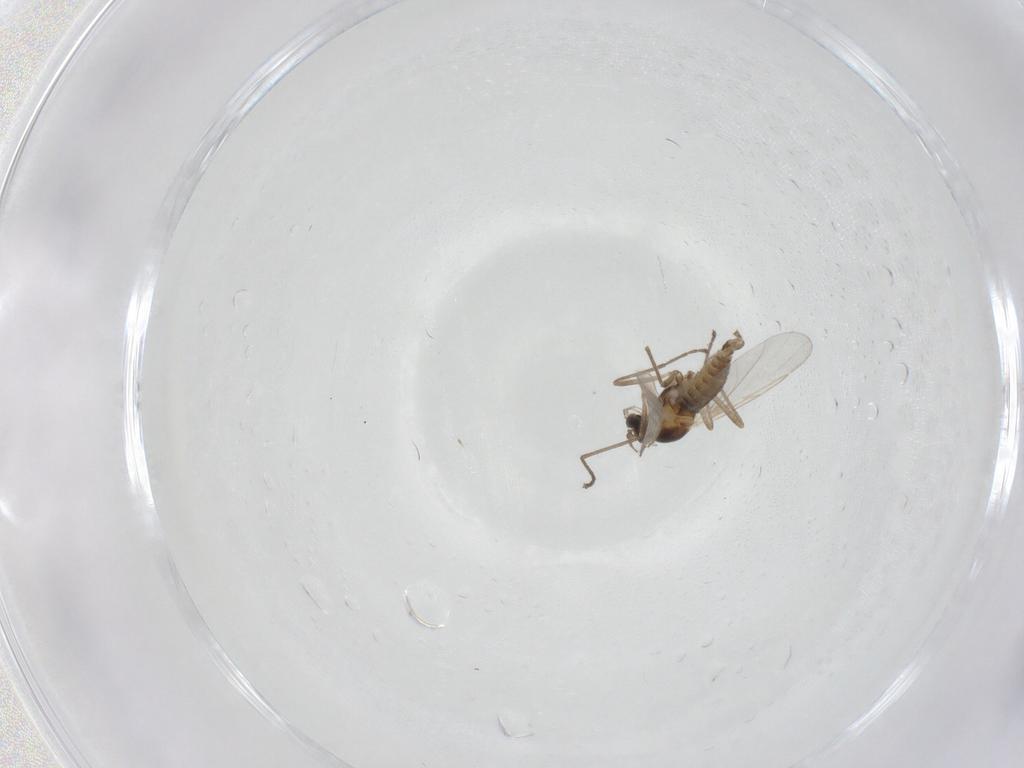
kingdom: Animalia
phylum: Arthropoda
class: Insecta
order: Diptera
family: Cecidomyiidae
